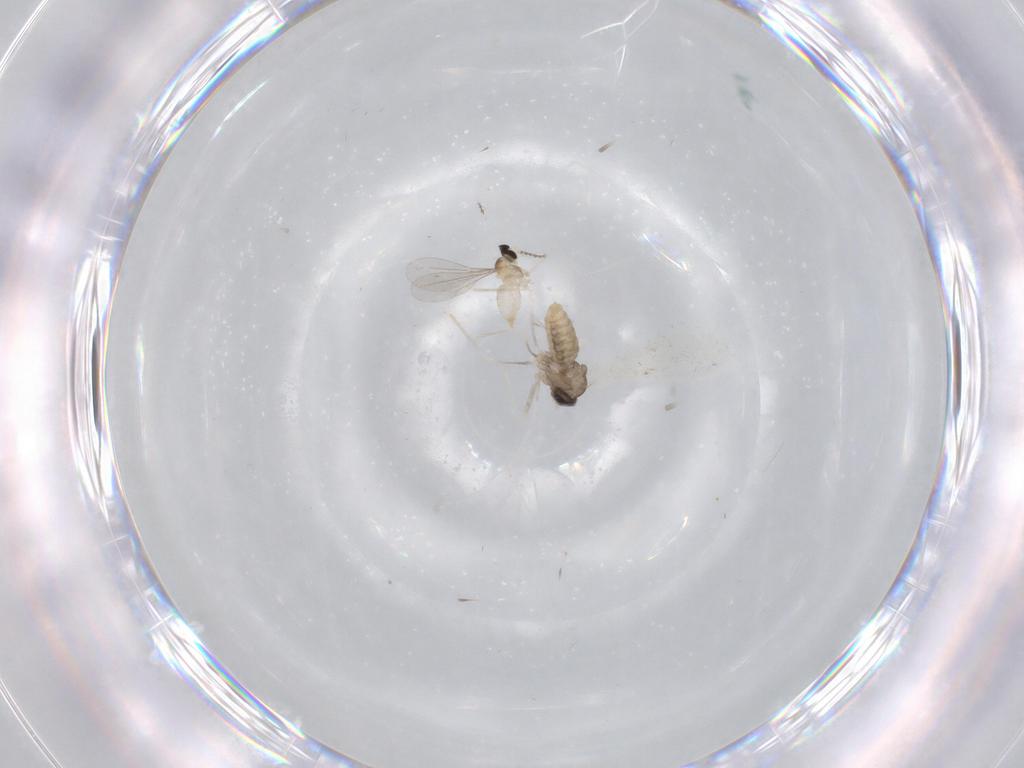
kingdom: Animalia
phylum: Arthropoda
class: Insecta
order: Diptera
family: Cecidomyiidae
